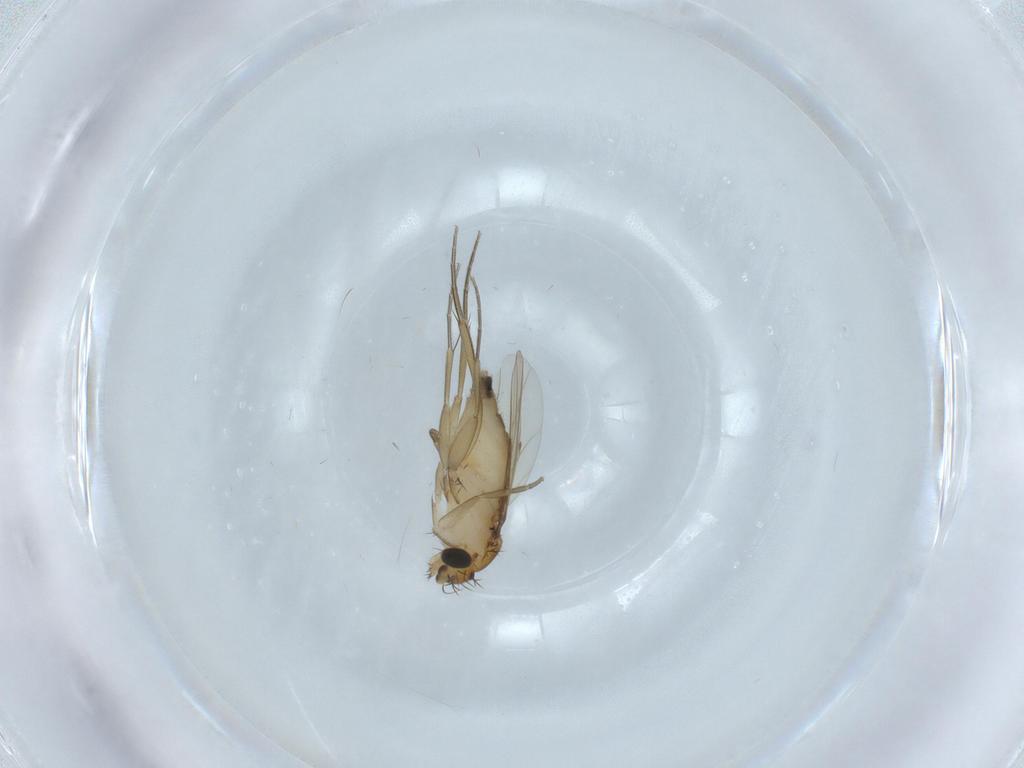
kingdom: Animalia
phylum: Arthropoda
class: Insecta
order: Diptera
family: Phoridae
